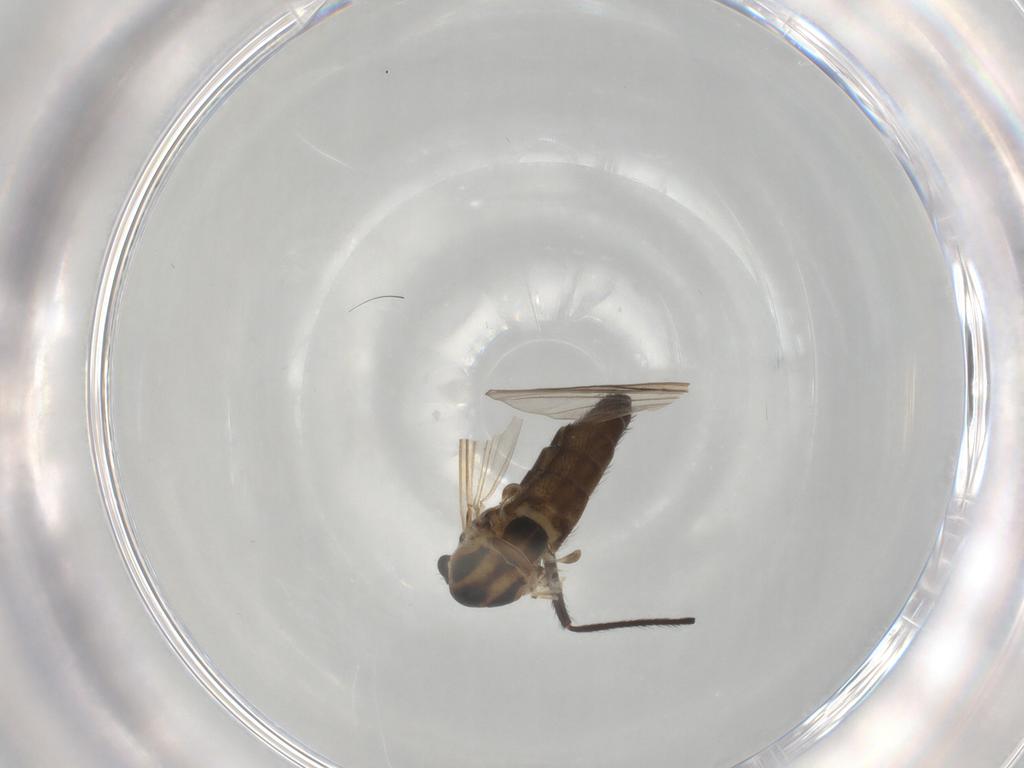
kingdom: Animalia
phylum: Arthropoda
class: Insecta
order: Diptera
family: Chironomidae
